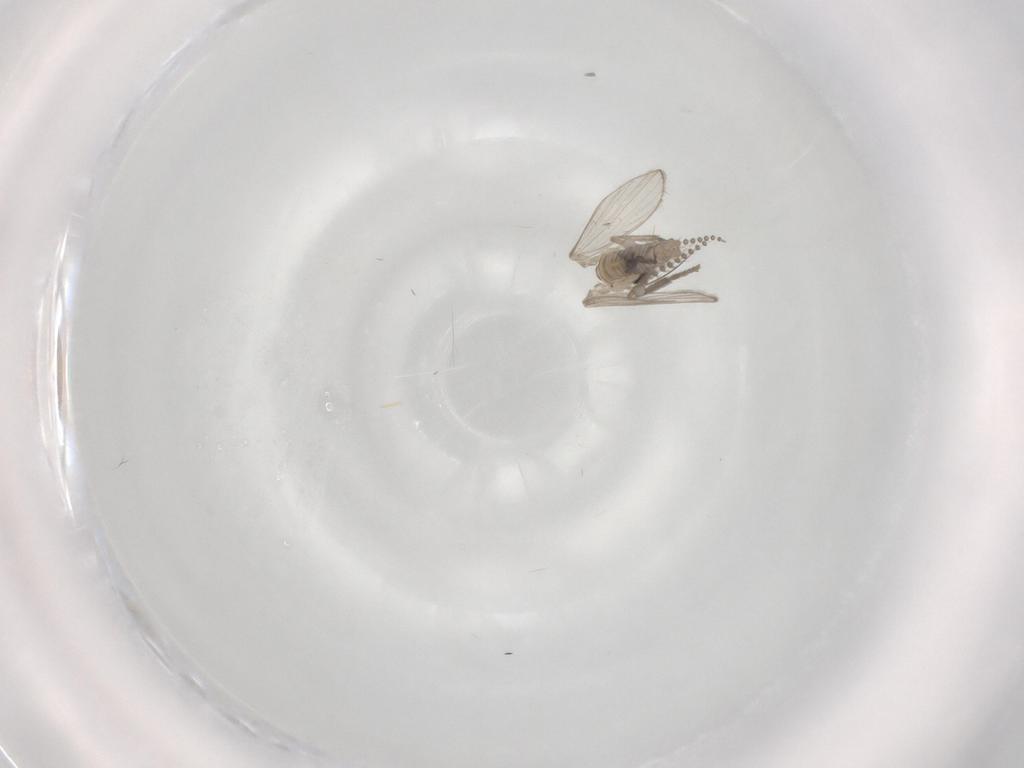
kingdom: Animalia
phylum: Arthropoda
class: Insecta
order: Diptera
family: Psychodidae
